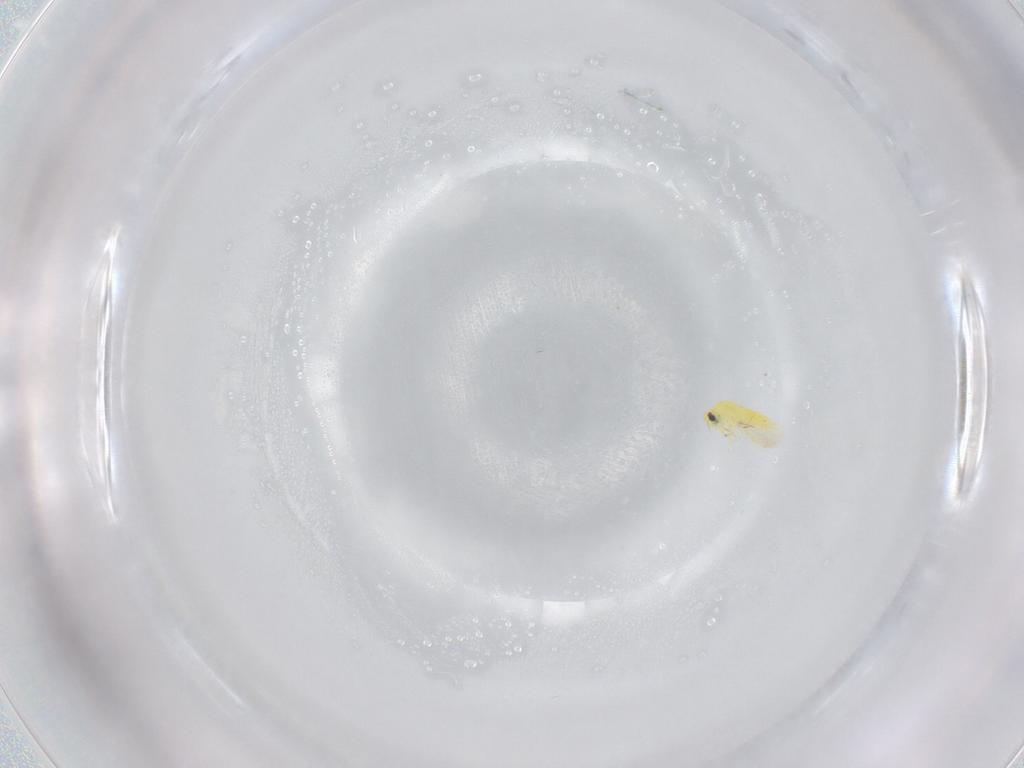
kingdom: Animalia
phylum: Arthropoda
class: Insecta
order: Hemiptera
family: Aleyrodidae
